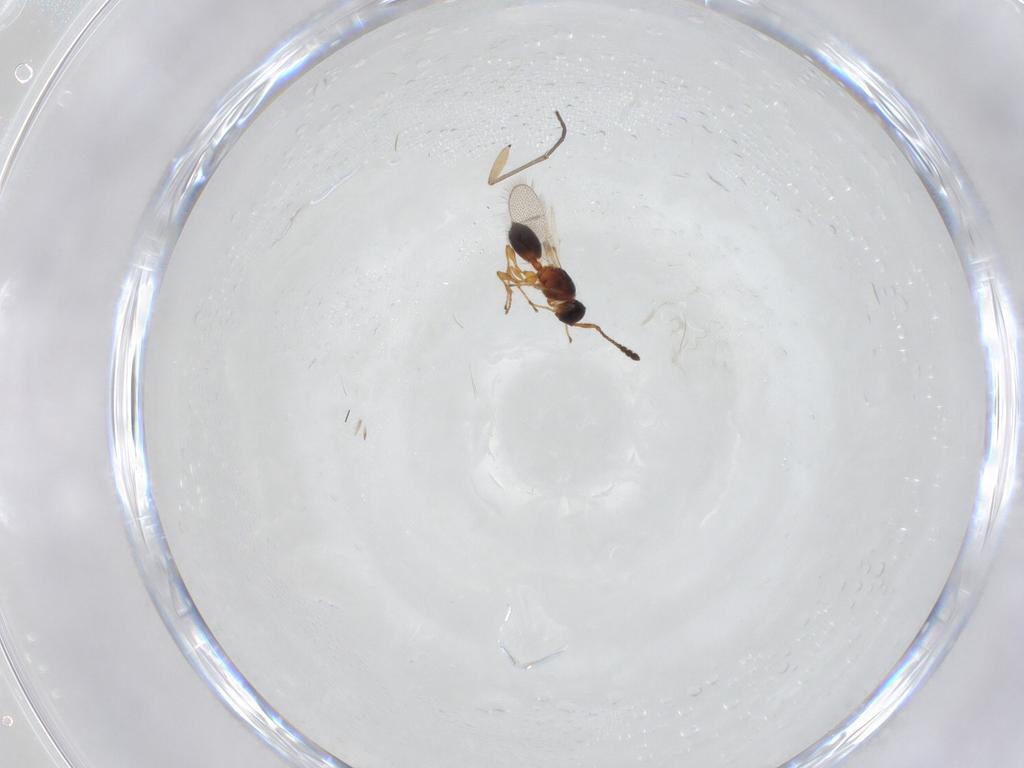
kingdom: Animalia
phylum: Arthropoda
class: Insecta
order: Hymenoptera
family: Diapriidae
